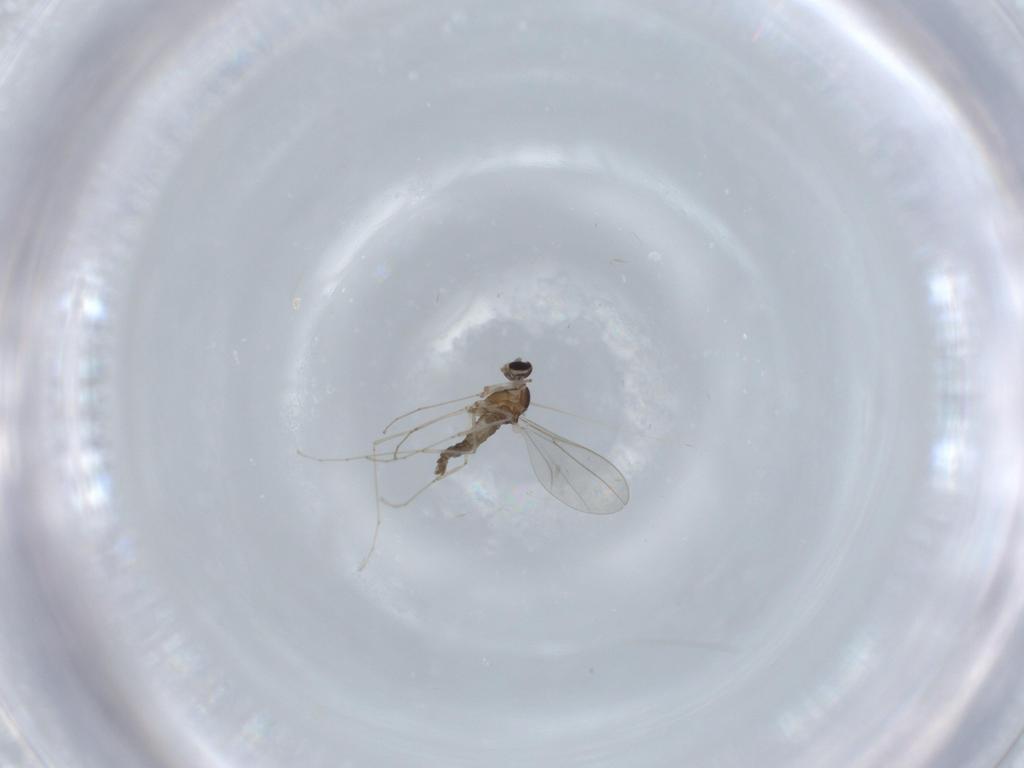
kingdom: Animalia
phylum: Arthropoda
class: Insecta
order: Diptera
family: Cecidomyiidae
